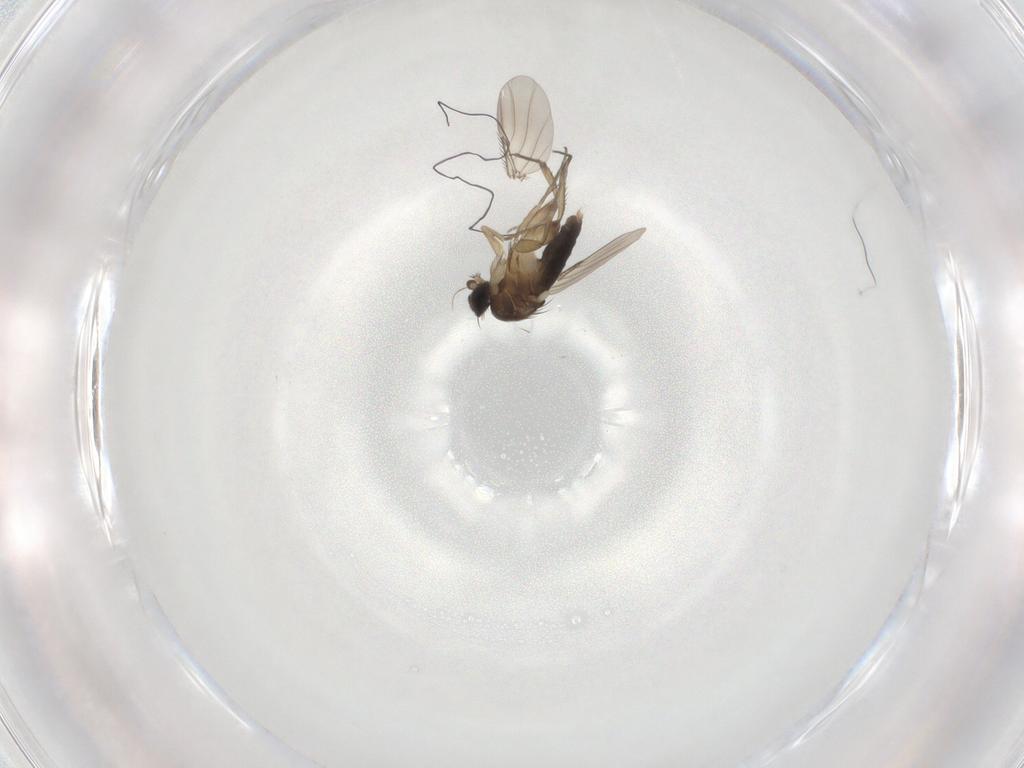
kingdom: Animalia
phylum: Arthropoda
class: Insecta
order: Diptera
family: Phoridae
